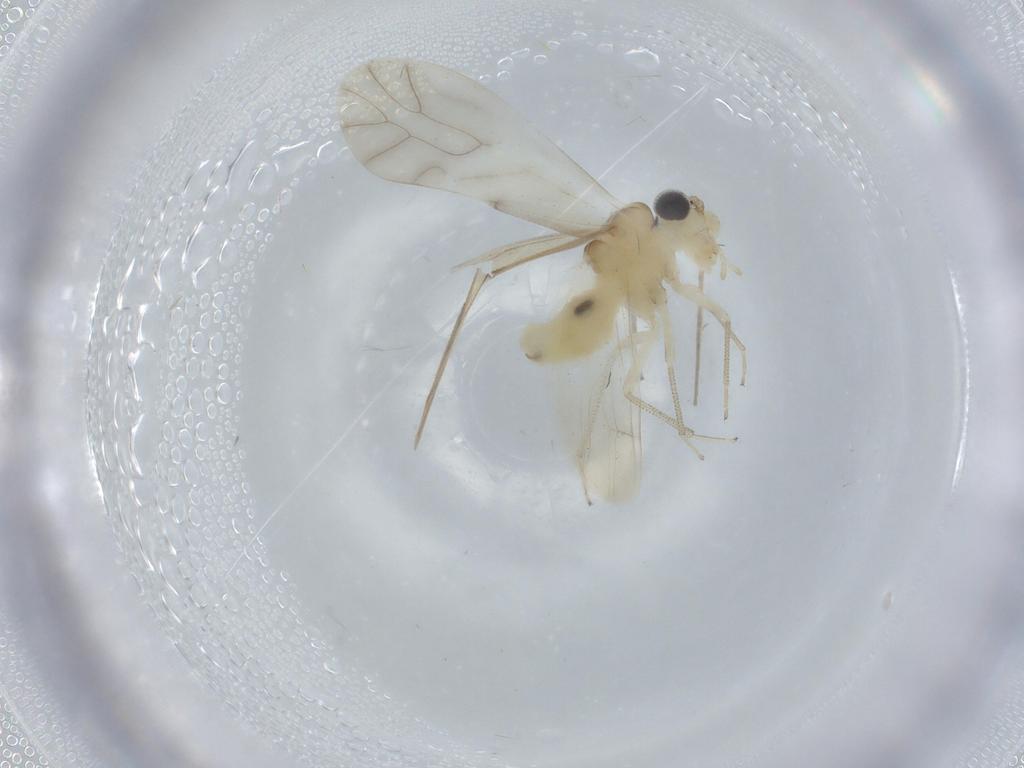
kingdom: Animalia
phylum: Arthropoda
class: Insecta
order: Psocodea
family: Caeciliusidae
